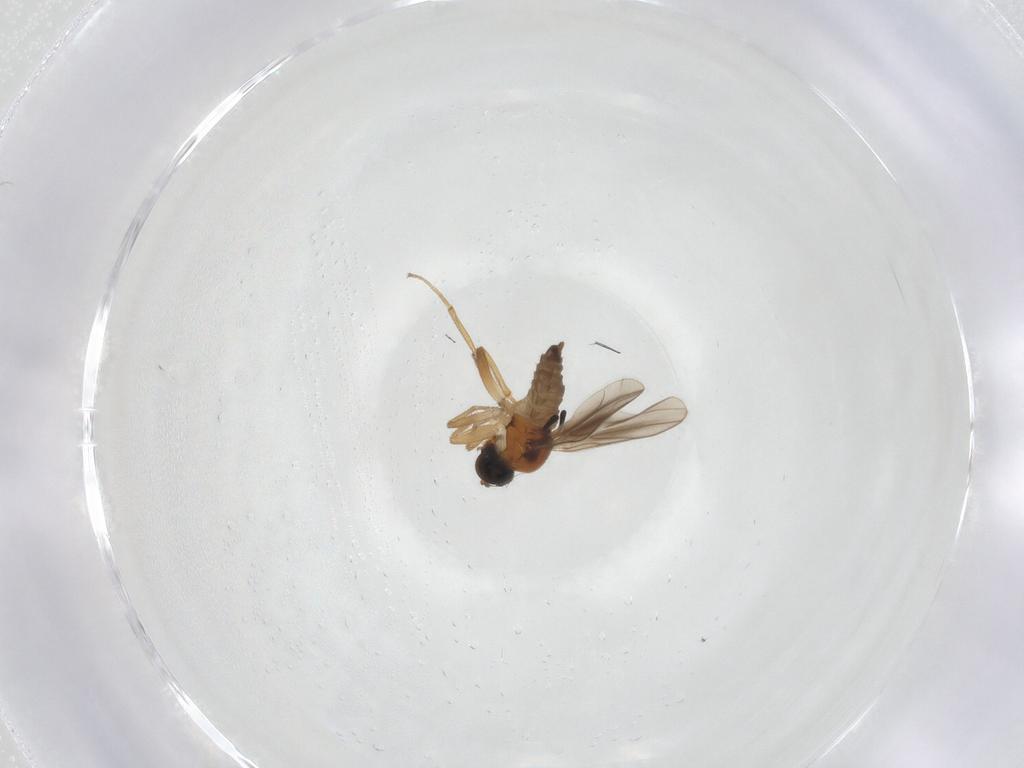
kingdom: Animalia
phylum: Arthropoda
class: Insecta
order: Diptera
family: Hybotidae
